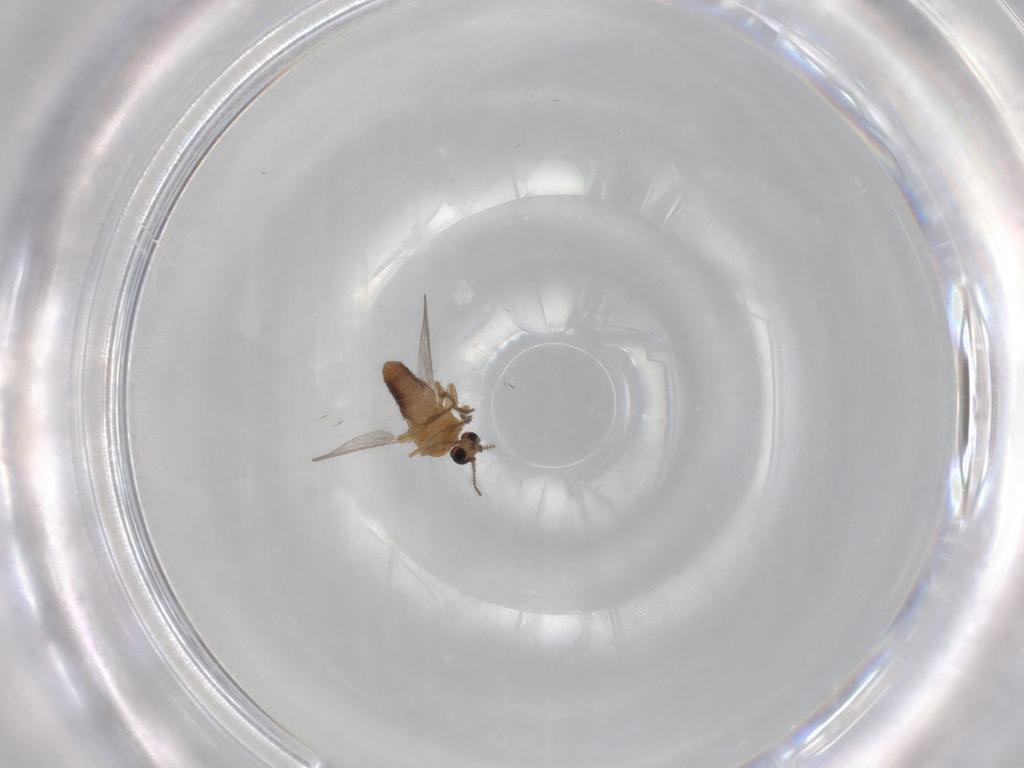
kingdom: Animalia
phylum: Arthropoda
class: Insecta
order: Diptera
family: Ceratopogonidae
